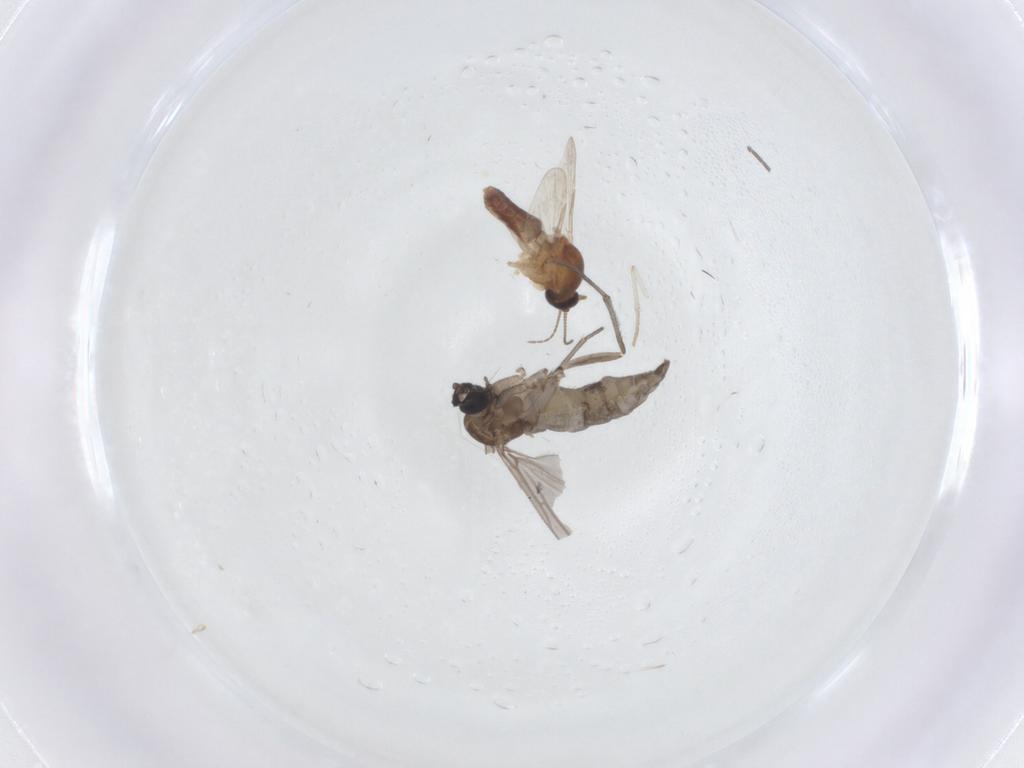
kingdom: Animalia
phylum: Arthropoda
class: Insecta
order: Diptera
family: Ceratopogonidae
